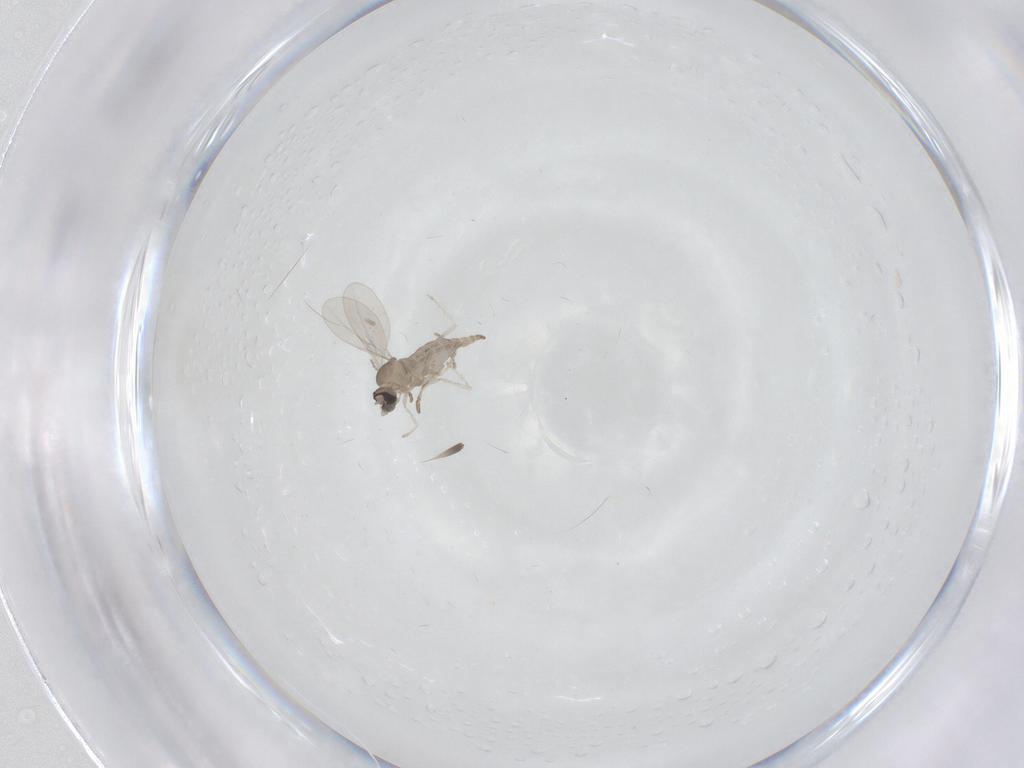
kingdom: Animalia
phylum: Arthropoda
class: Insecta
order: Diptera
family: Cecidomyiidae
